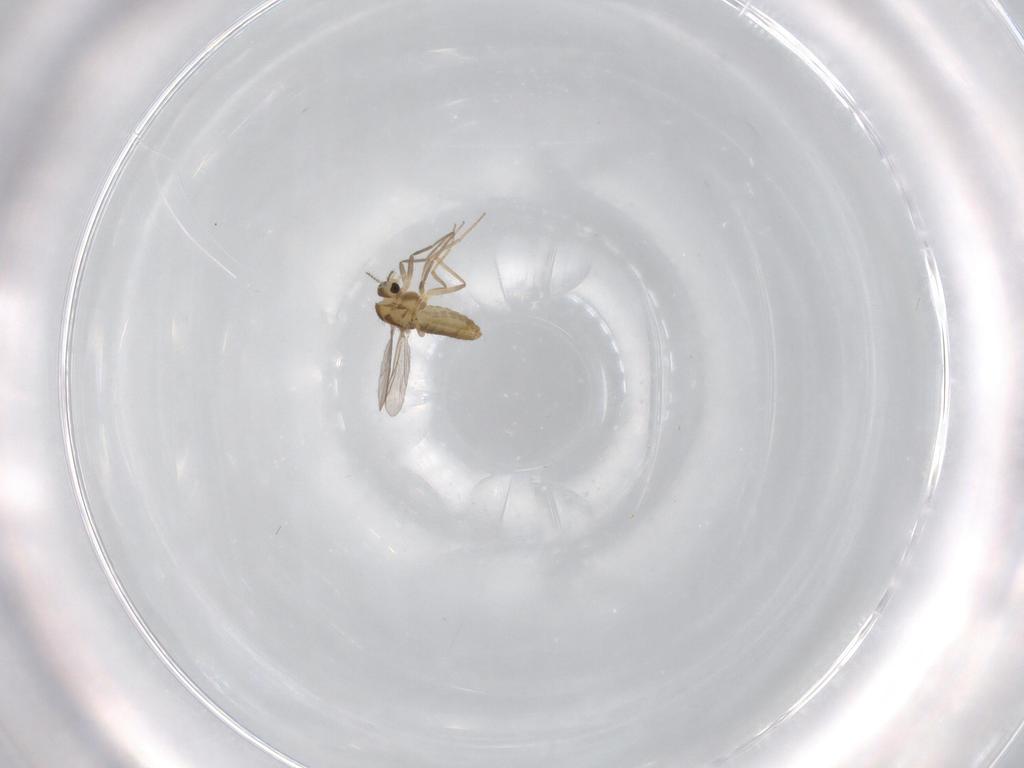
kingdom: Animalia
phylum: Arthropoda
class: Insecta
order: Diptera
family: Chironomidae
